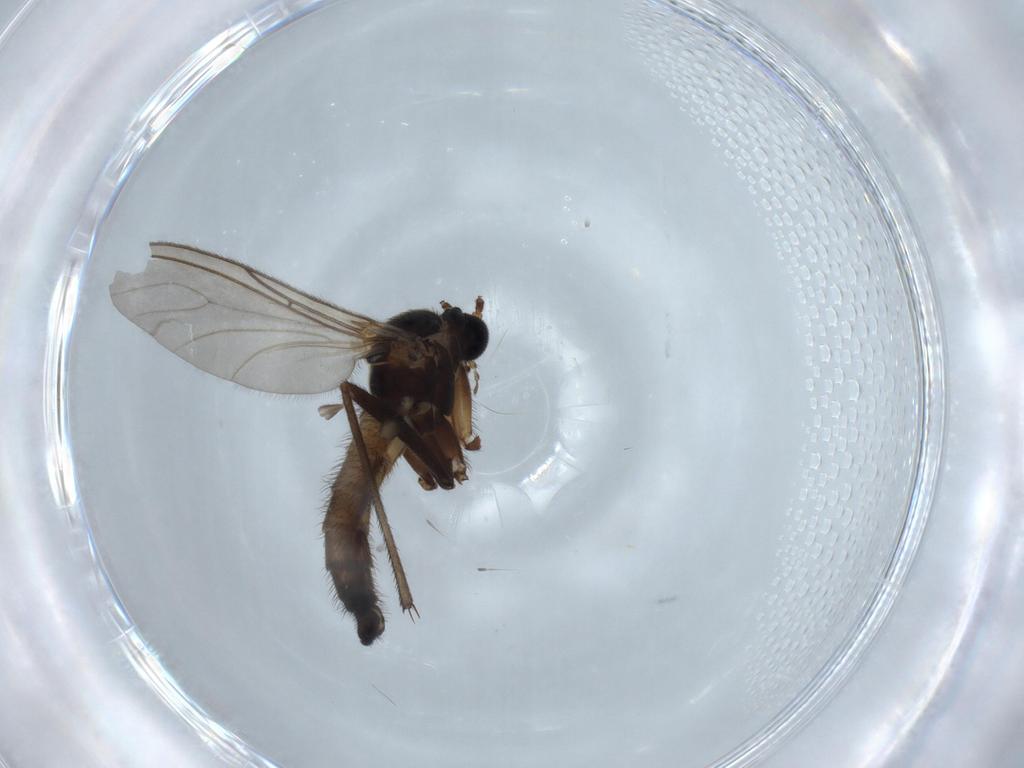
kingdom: Animalia
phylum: Arthropoda
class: Insecta
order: Diptera
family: Sciaridae
